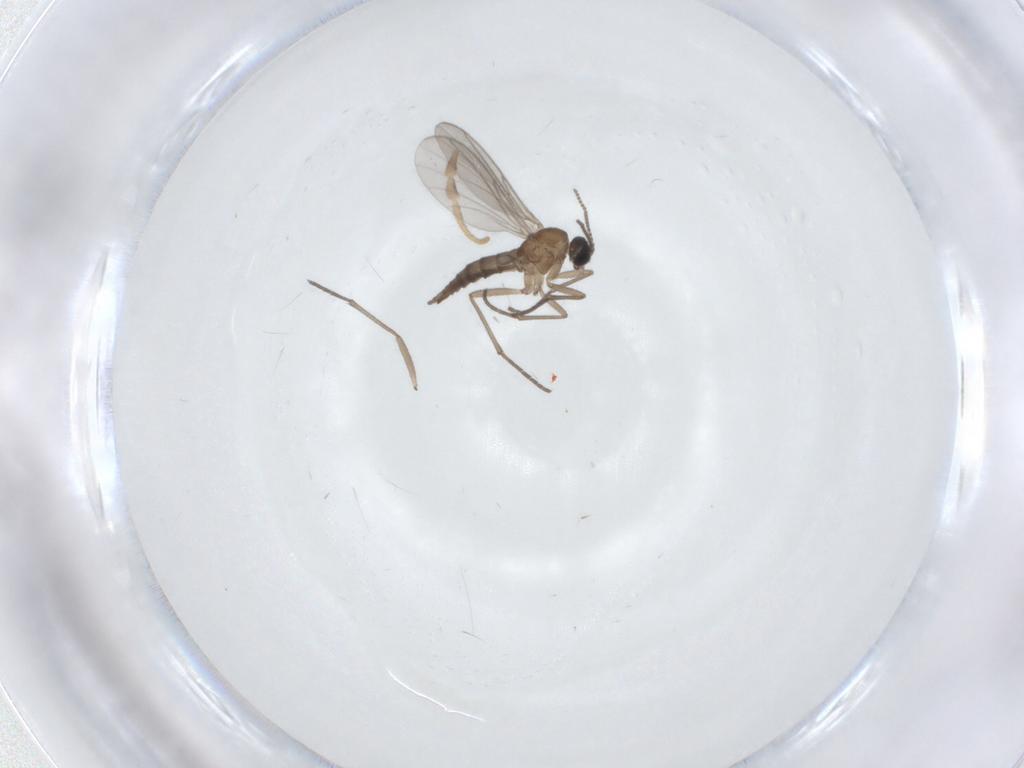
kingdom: Animalia
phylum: Arthropoda
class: Insecta
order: Diptera
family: Sciaridae
